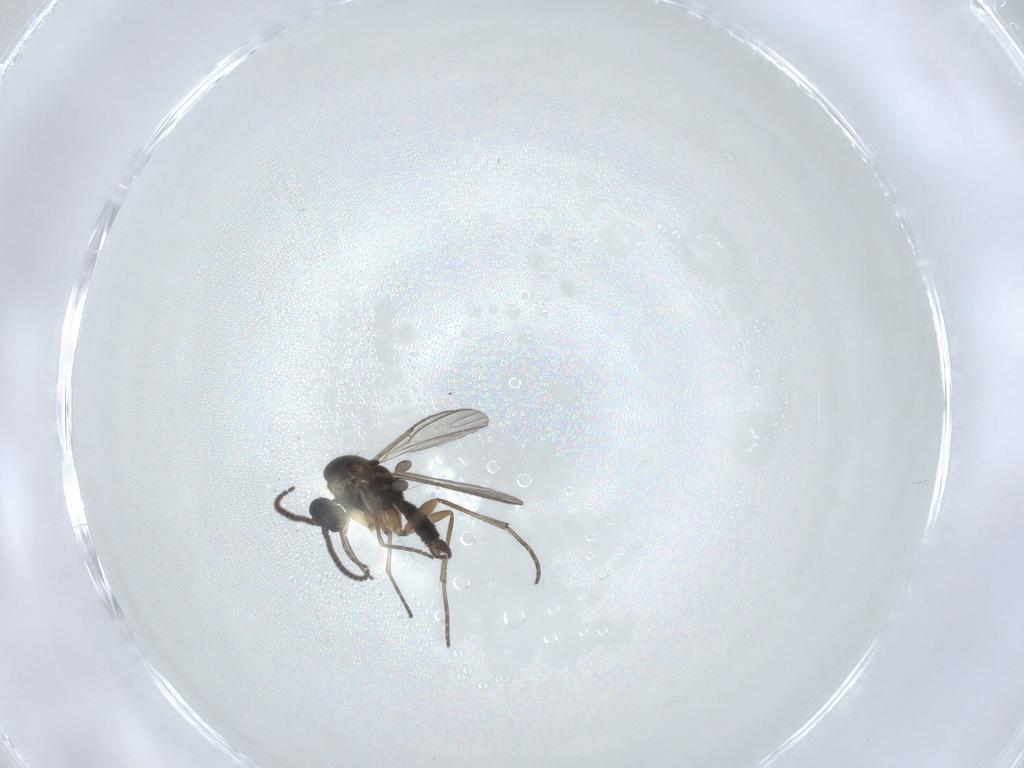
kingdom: Animalia
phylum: Arthropoda
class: Insecta
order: Diptera
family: Sciaridae
